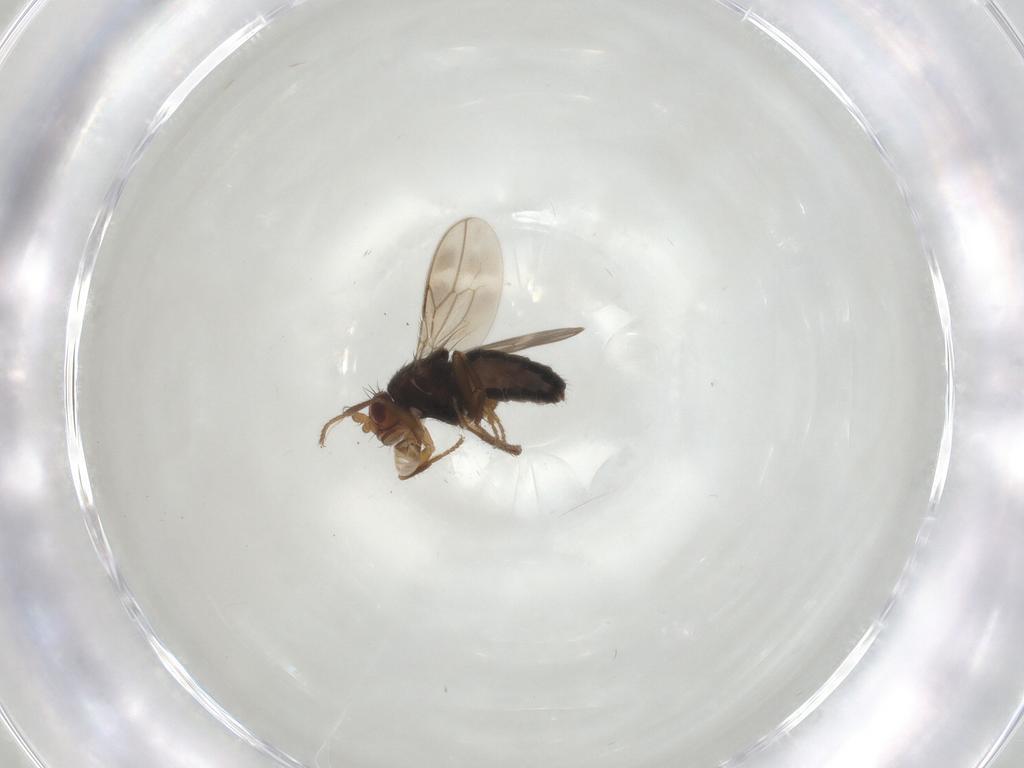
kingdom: Animalia
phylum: Arthropoda
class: Insecta
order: Diptera
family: Sphaeroceridae
